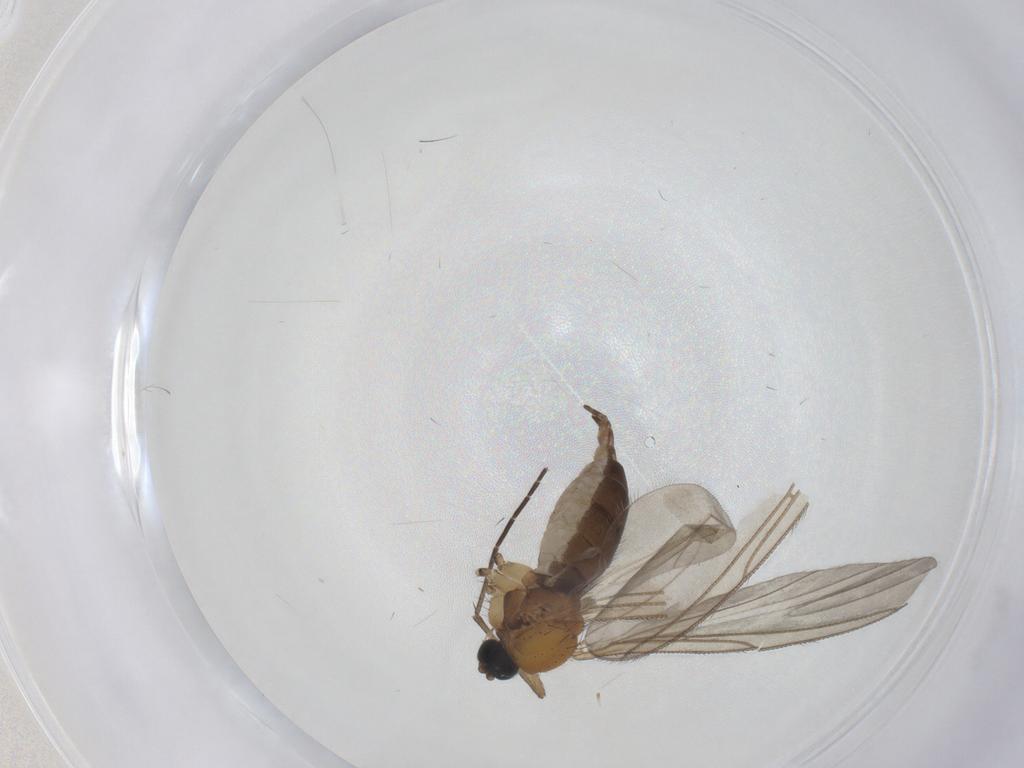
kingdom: Animalia
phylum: Arthropoda
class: Insecta
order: Diptera
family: Sciaridae
